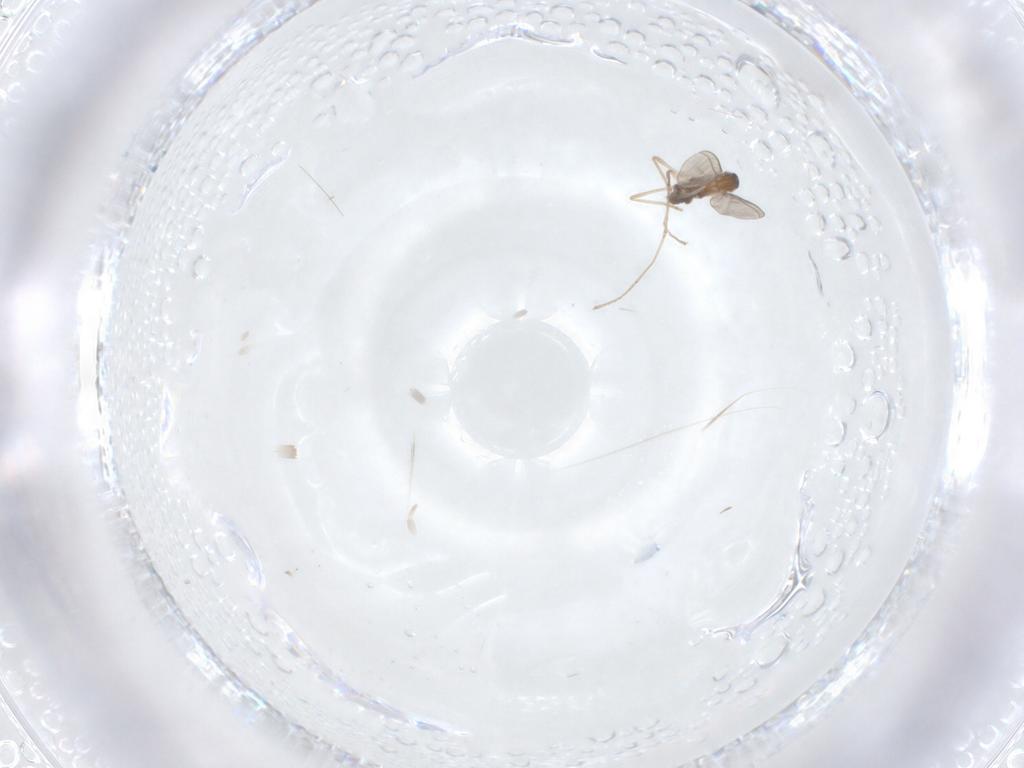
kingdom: Animalia
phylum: Arthropoda
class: Insecta
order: Diptera
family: Cecidomyiidae
